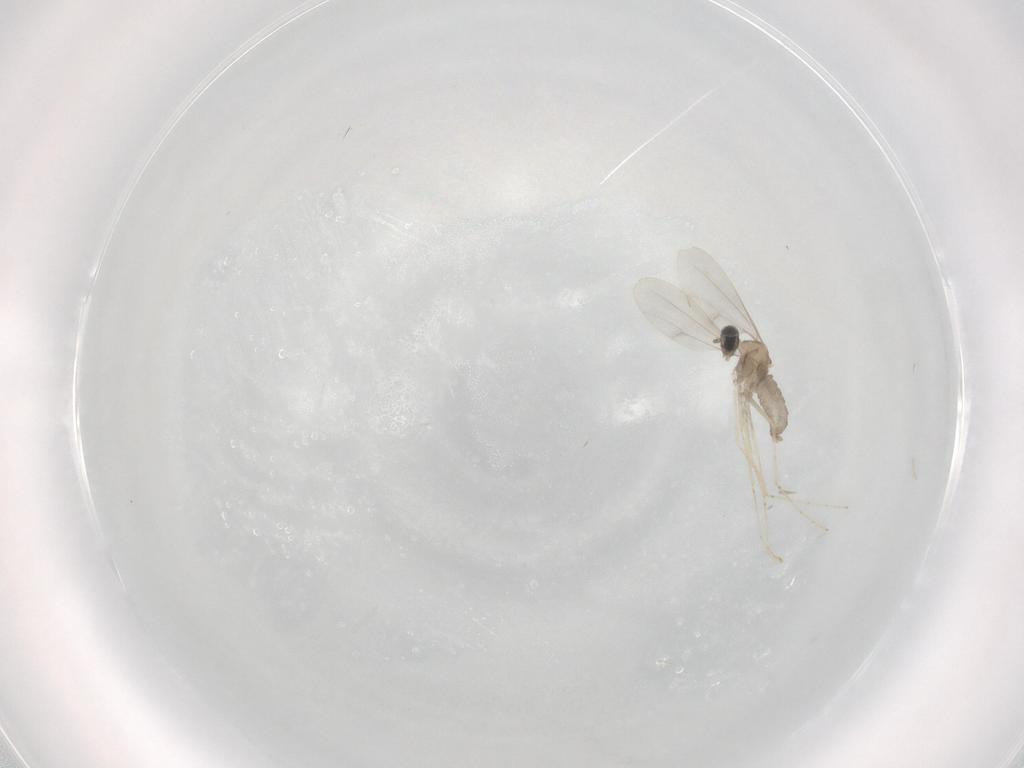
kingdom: Animalia
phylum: Arthropoda
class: Insecta
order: Diptera
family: Cecidomyiidae
